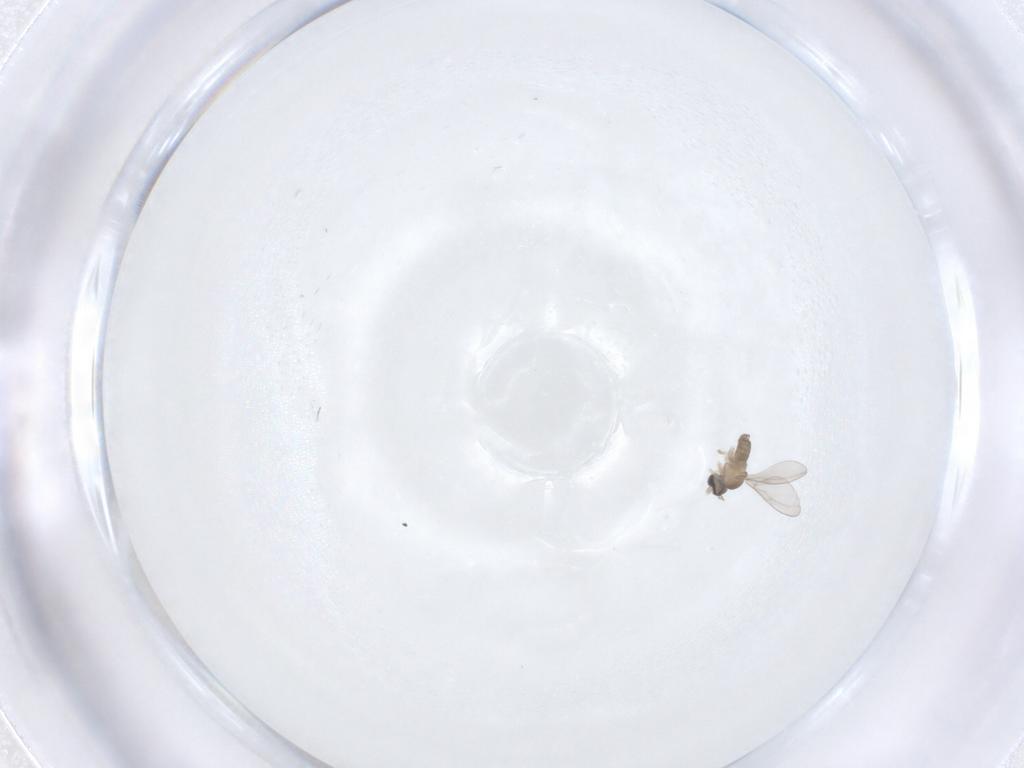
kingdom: Animalia
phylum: Arthropoda
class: Insecta
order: Diptera
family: Cecidomyiidae
